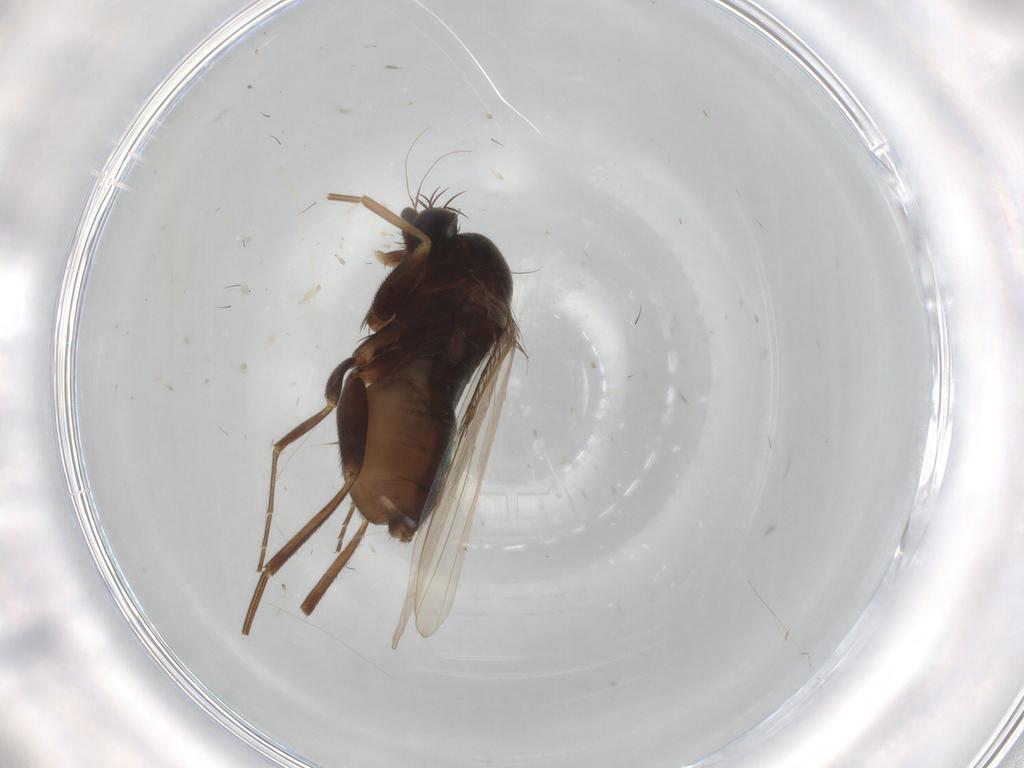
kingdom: Animalia
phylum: Arthropoda
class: Insecta
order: Diptera
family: Phoridae
